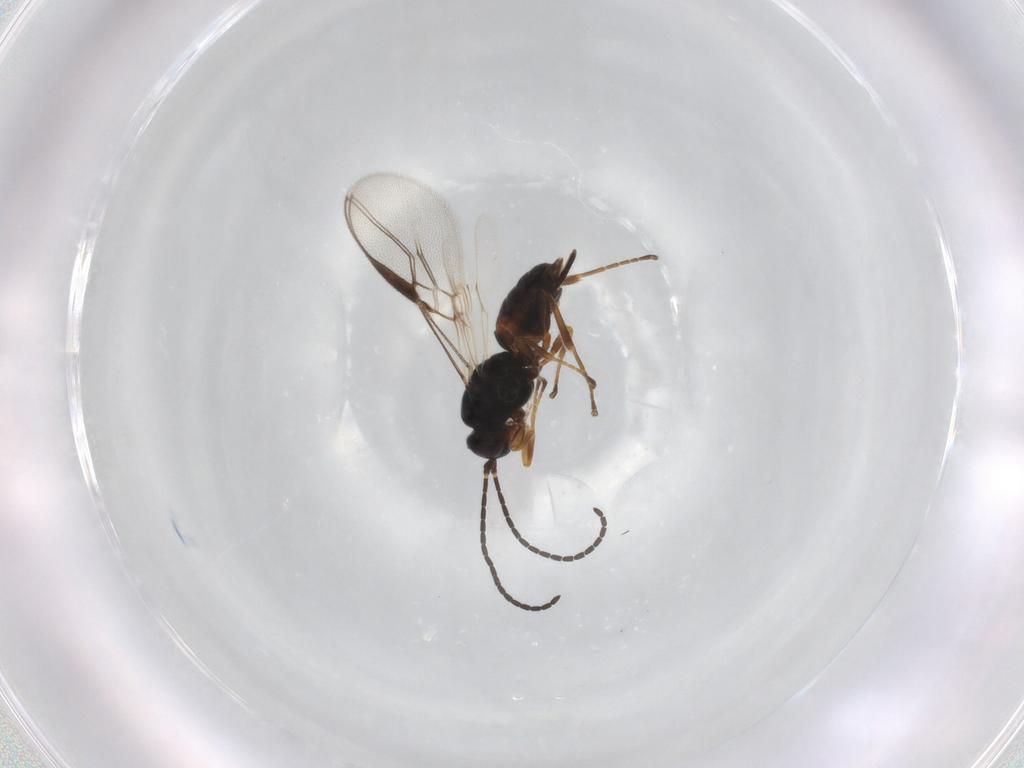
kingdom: Animalia
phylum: Arthropoda
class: Insecta
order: Hymenoptera
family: Braconidae
